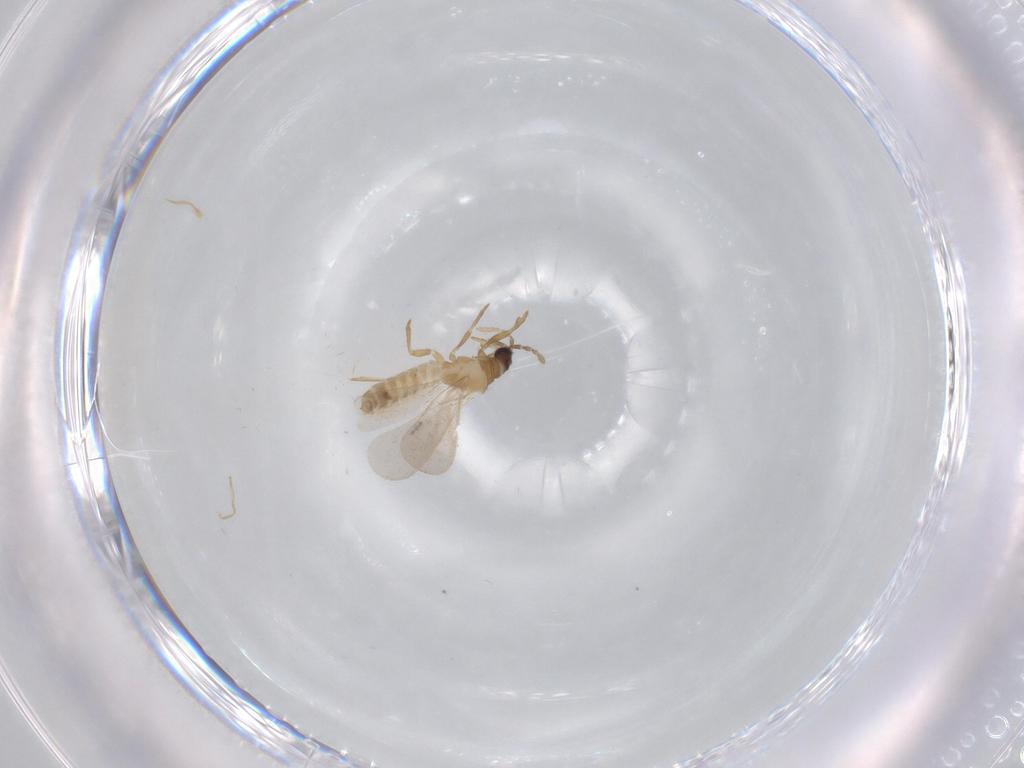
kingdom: Animalia
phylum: Arthropoda
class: Insecta
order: Hemiptera
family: Enicocephalidae
